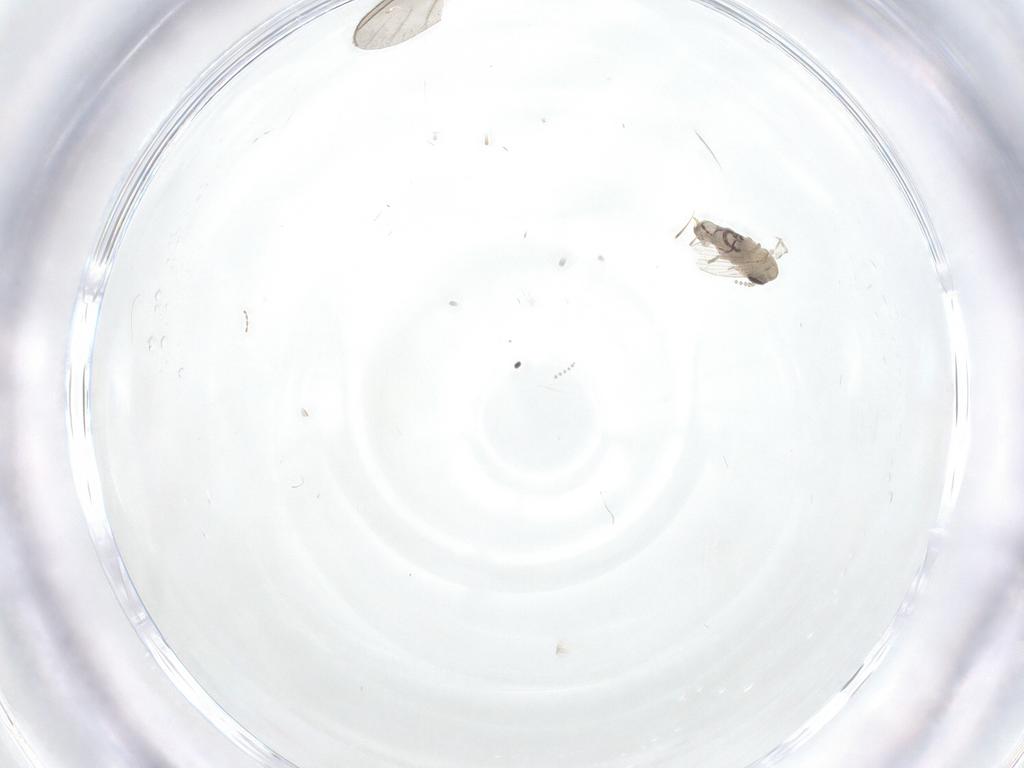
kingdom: Animalia
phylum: Arthropoda
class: Insecta
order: Diptera
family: Psychodidae
